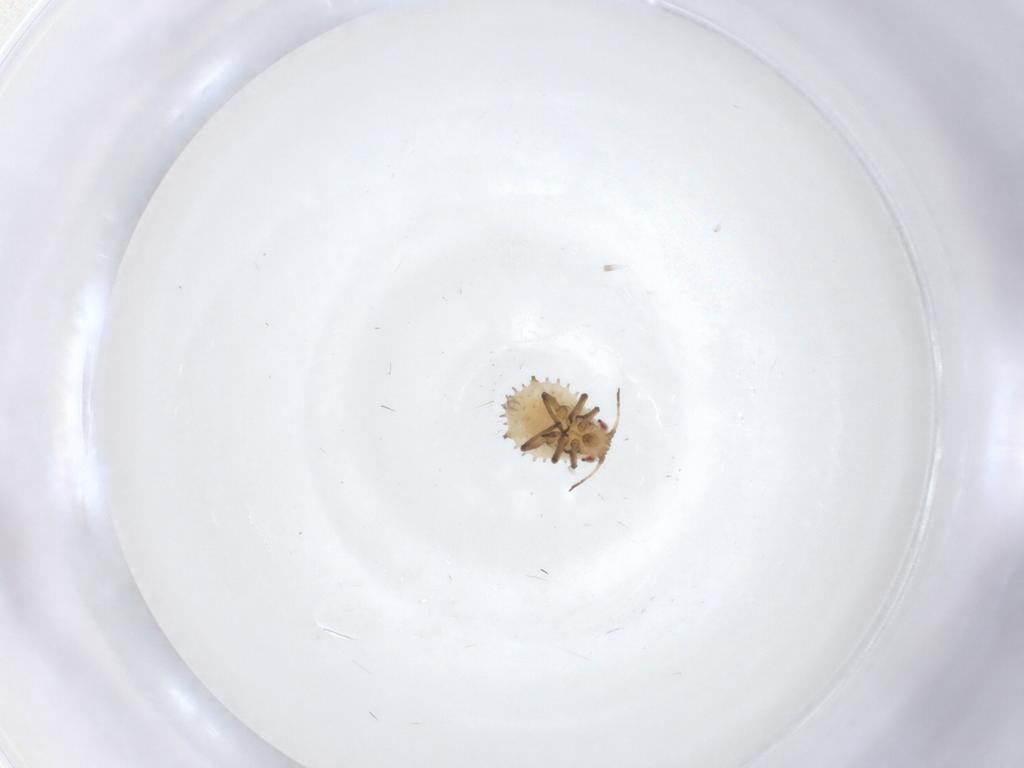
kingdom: Animalia
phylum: Arthropoda
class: Insecta
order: Hemiptera
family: Aphididae
